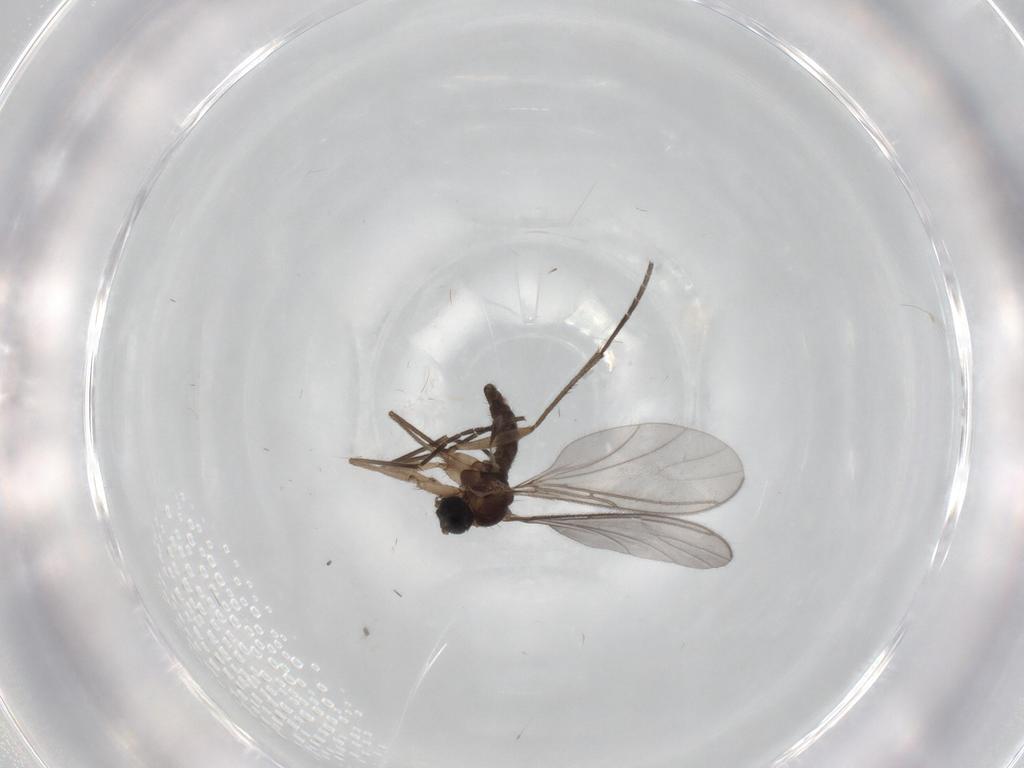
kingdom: Animalia
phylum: Arthropoda
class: Insecta
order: Diptera
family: Sciaridae
